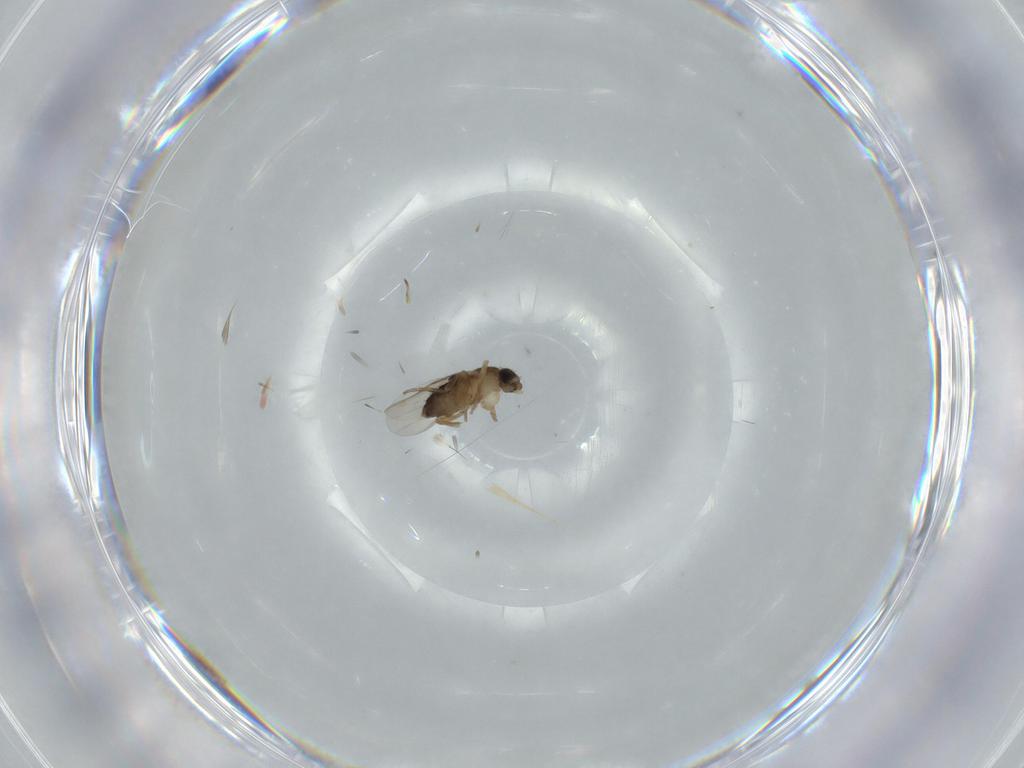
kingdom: Animalia
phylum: Arthropoda
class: Insecta
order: Diptera
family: Phoridae
